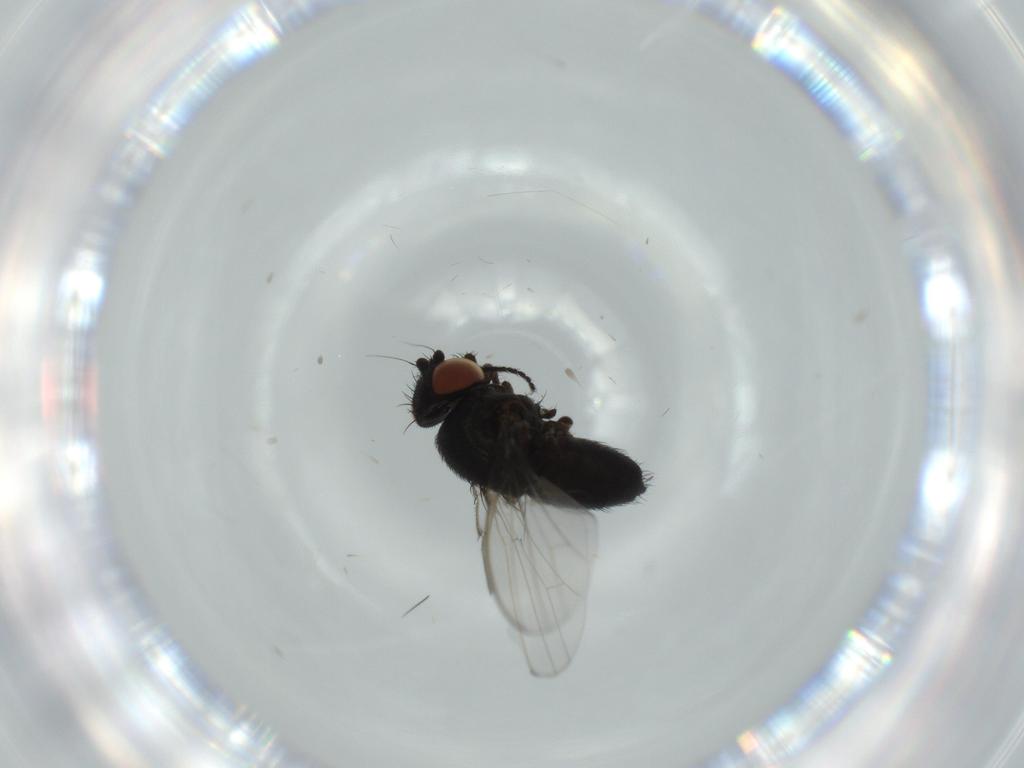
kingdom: Animalia
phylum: Arthropoda
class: Insecta
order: Diptera
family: Milichiidae
